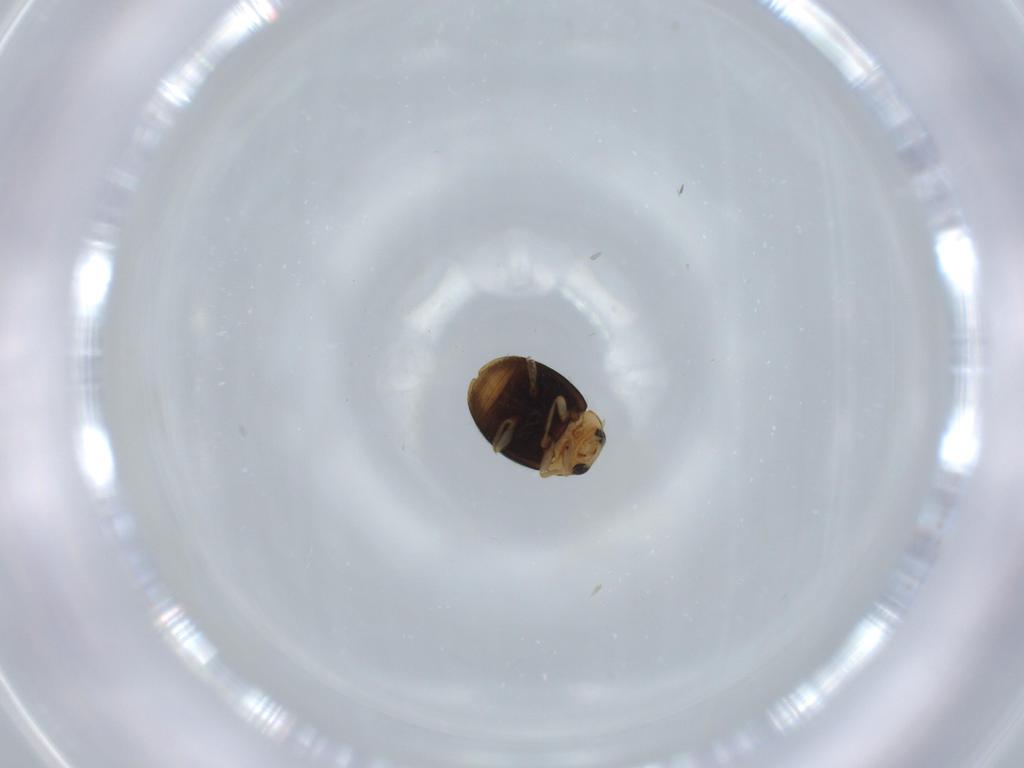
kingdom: Animalia
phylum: Arthropoda
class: Insecta
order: Coleoptera
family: Coccinellidae
